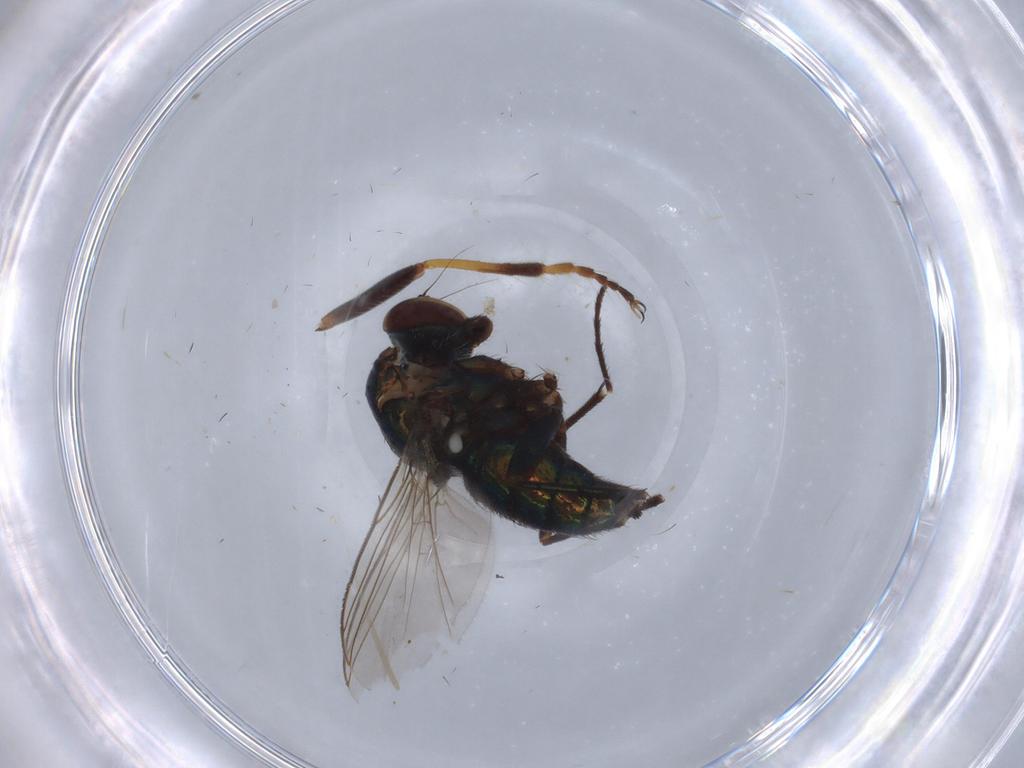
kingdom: Animalia
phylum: Arthropoda
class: Insecta
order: Diptera
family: Dolichopodidae
